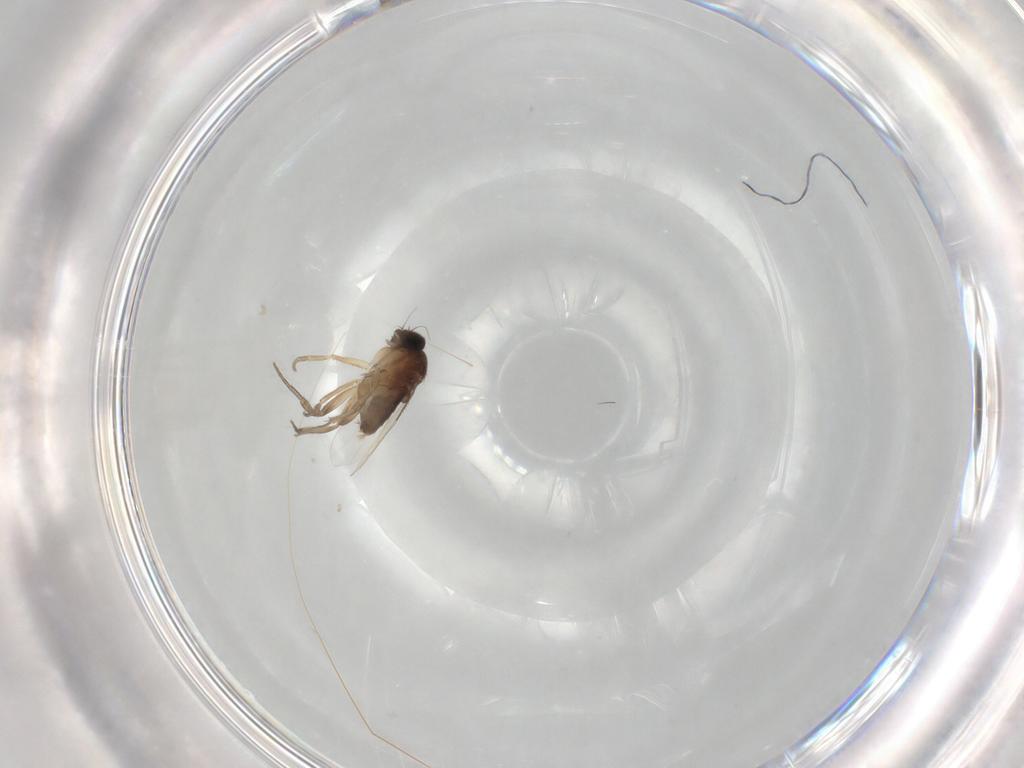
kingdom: Animalia
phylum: Arthropoda
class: Insecta
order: Diptera
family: Phoridae
